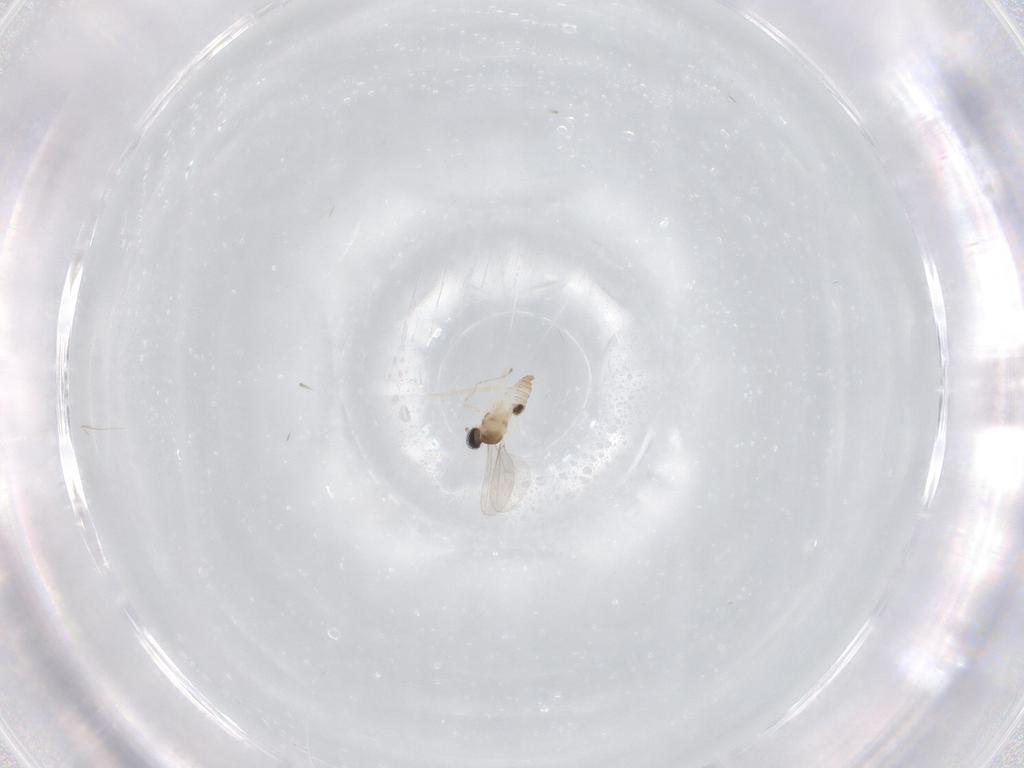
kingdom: Animalia
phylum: Arthropoda
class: Insecta
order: Diptera
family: Cecidomyiidae
